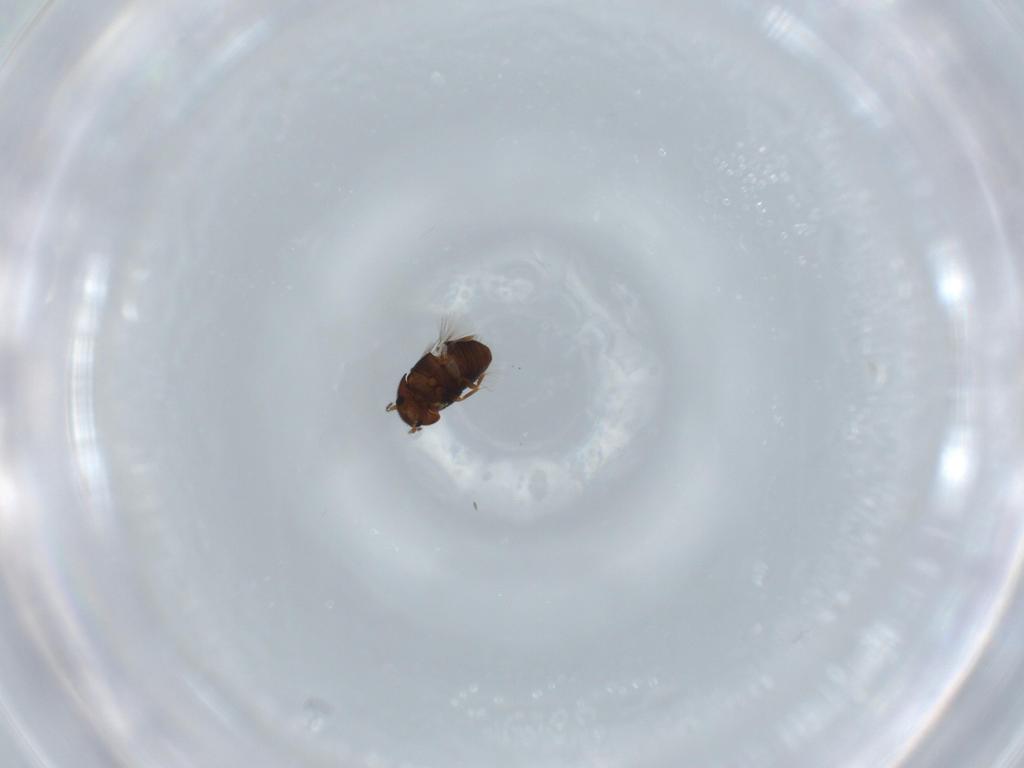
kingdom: Animalia
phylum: Arthropoda
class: Insecta
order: Coleoptera
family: Ptiliidae
